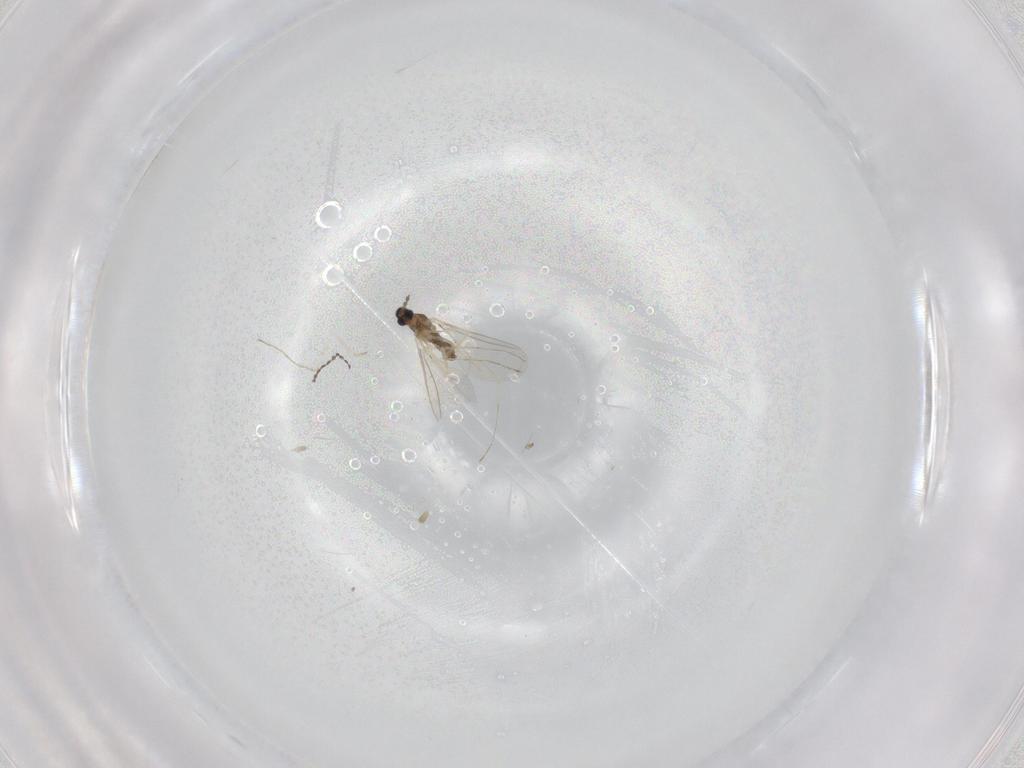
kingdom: Animalia
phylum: Arthropoda
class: Insecta
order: Diptera
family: Cecidomyiidae
